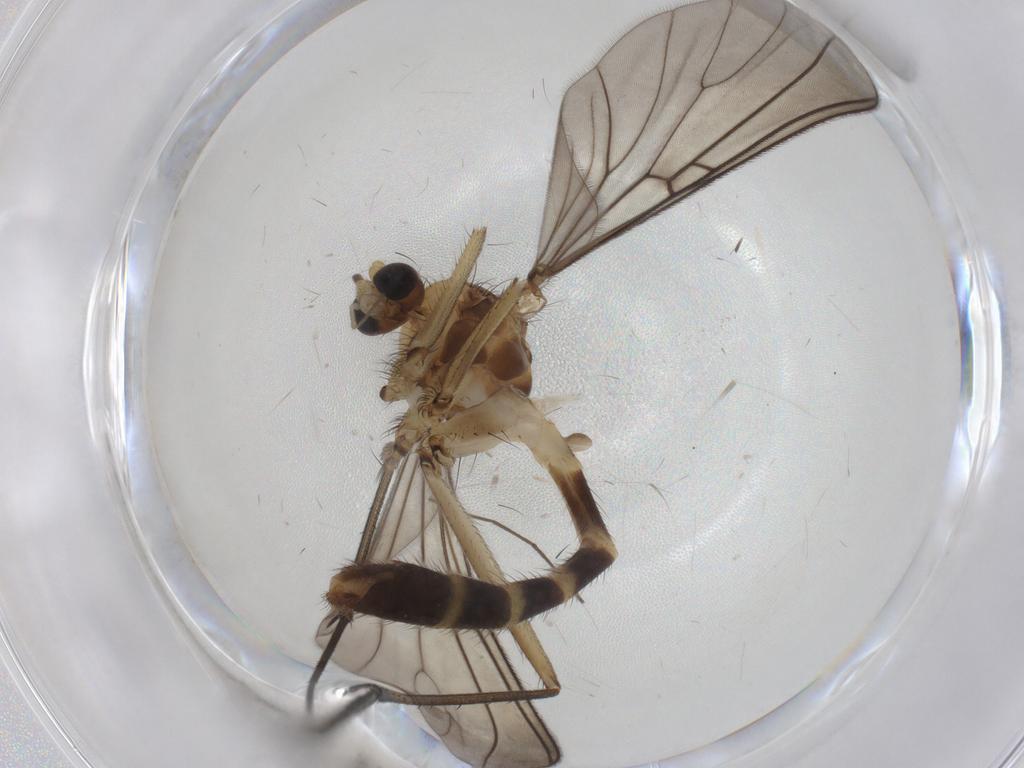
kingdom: Animalia
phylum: Arthropoda
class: Insecta
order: Diptera
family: Cecidomyiidae
